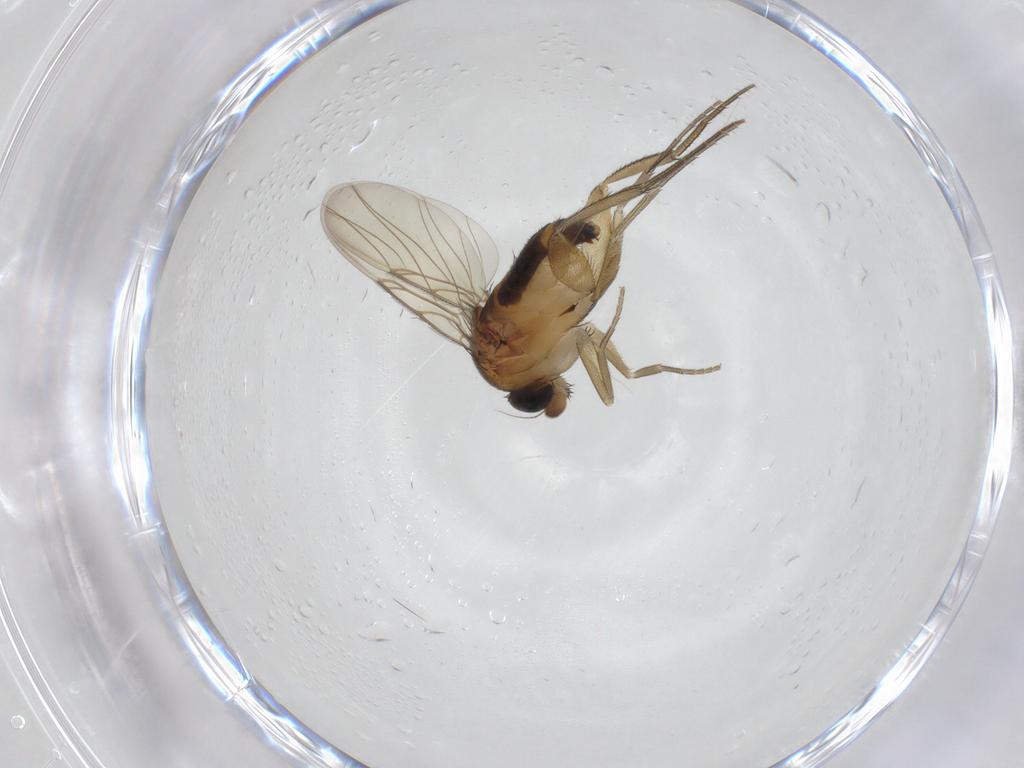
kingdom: Animalia
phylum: Arthropoda
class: Insecta
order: Diptera
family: Phoridae
